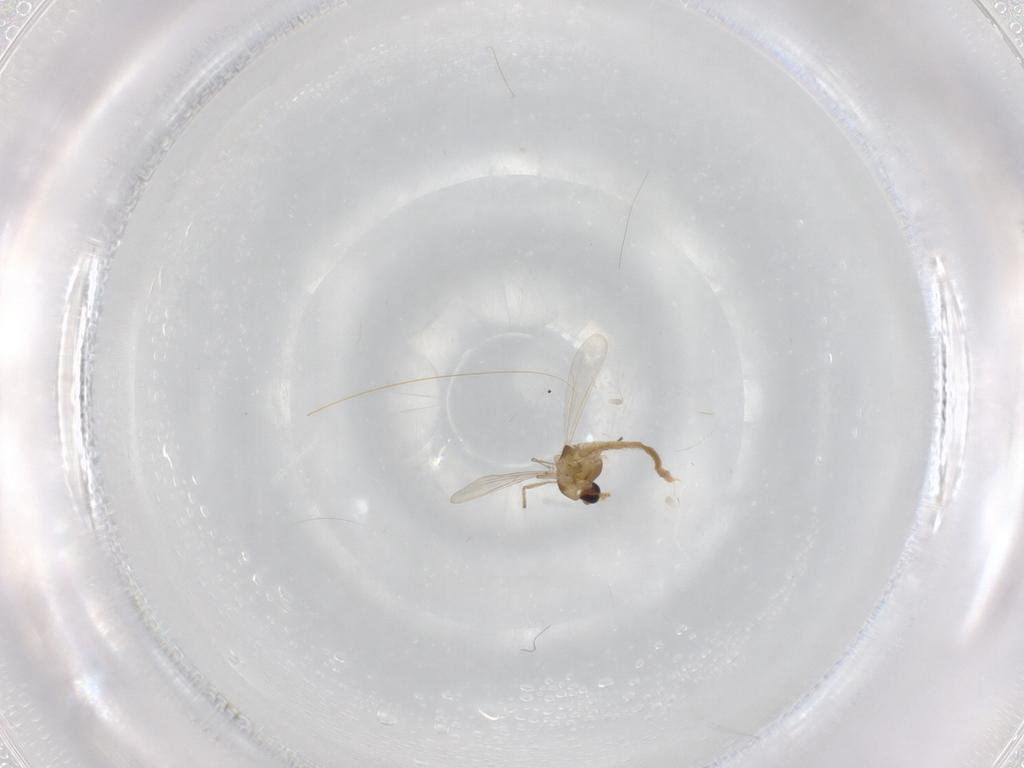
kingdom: Animalia
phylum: Arthropoda
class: Insecta
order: Diptera
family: Chironomidae
